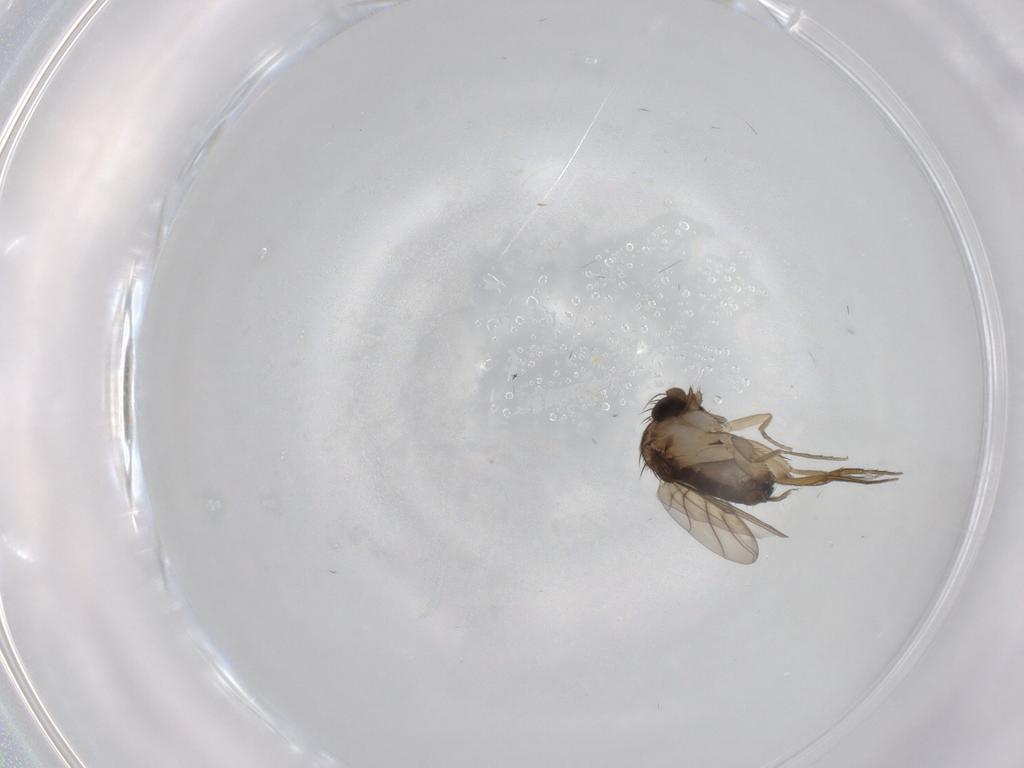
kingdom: Animalia
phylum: Arthropoda
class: Insecta
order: Diptera
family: Phoridae
